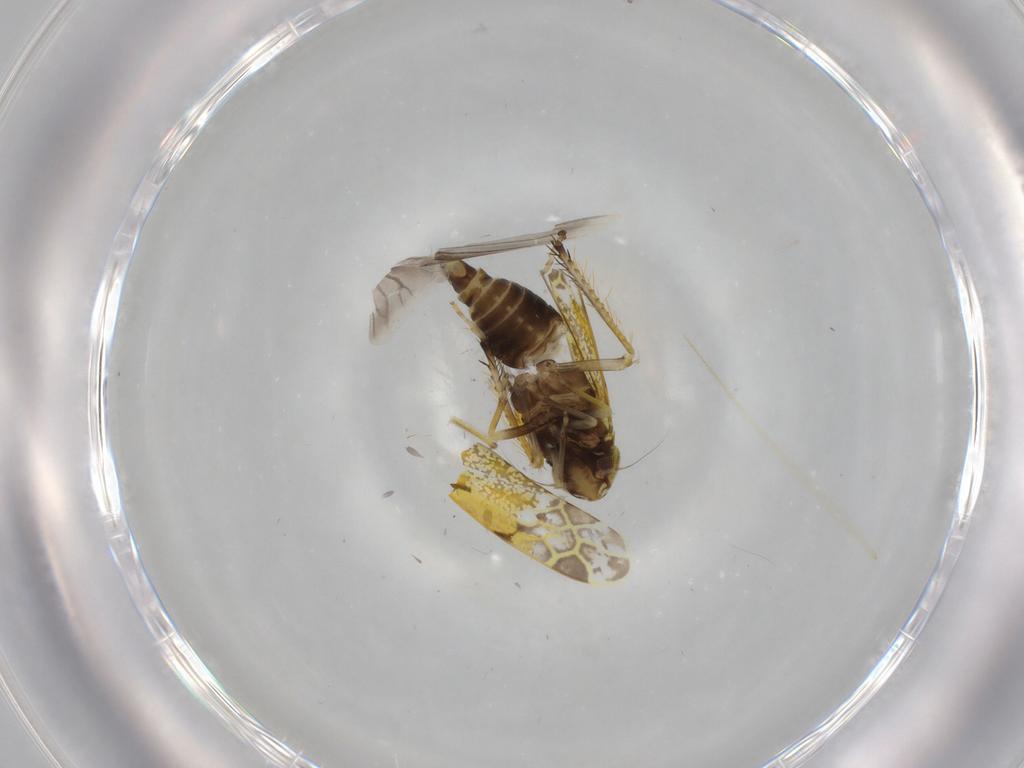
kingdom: Animalia
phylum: Arthropoda
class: Insecta
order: Hemiptera
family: Cicadellidae
